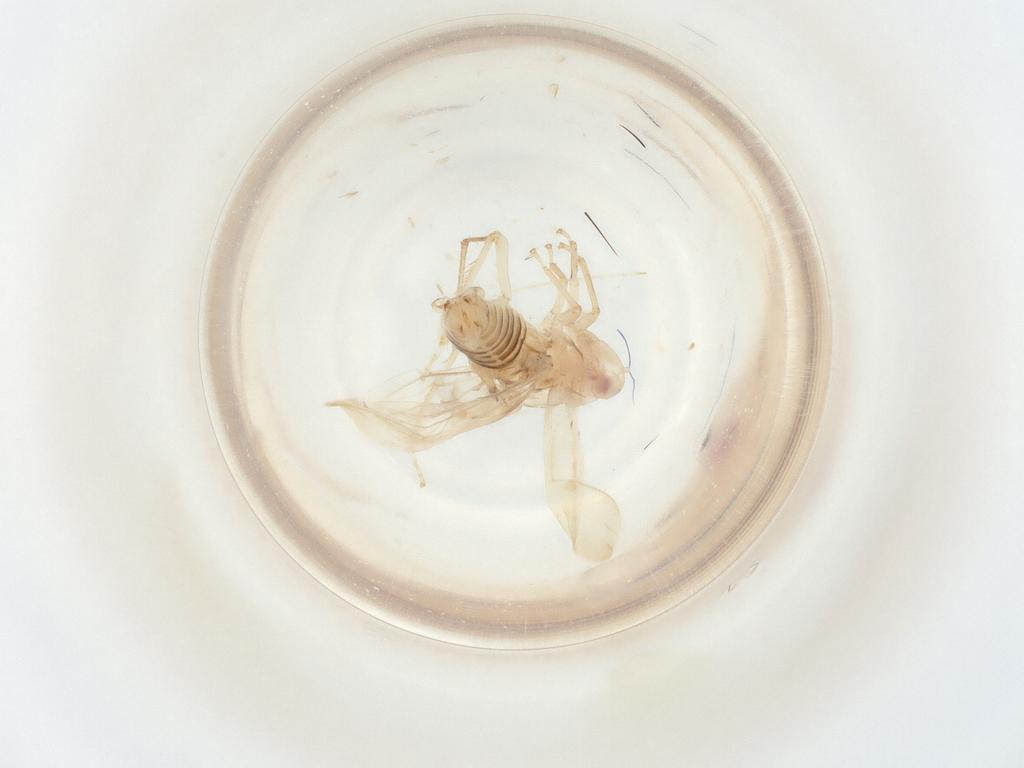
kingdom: Animalia
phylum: Arthropoda
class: Insecta
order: Hemiptera
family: Cicadellidae
